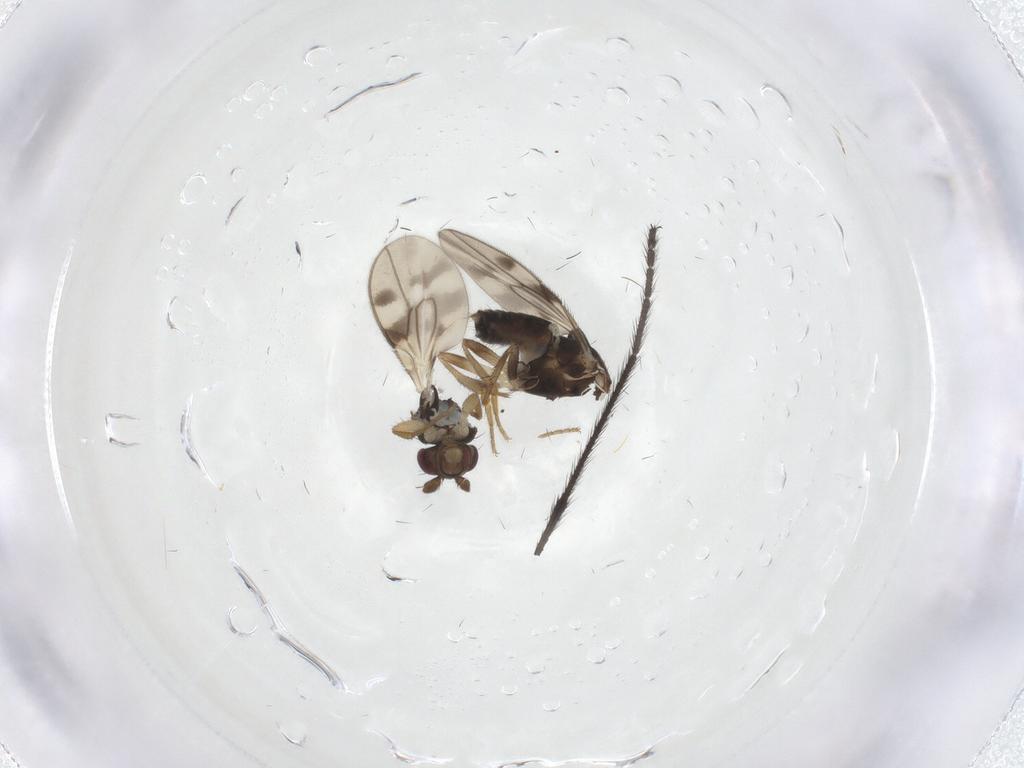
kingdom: Animalia
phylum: Arthropoda
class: Insecta
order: Diptera
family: Sphaeroceridae
